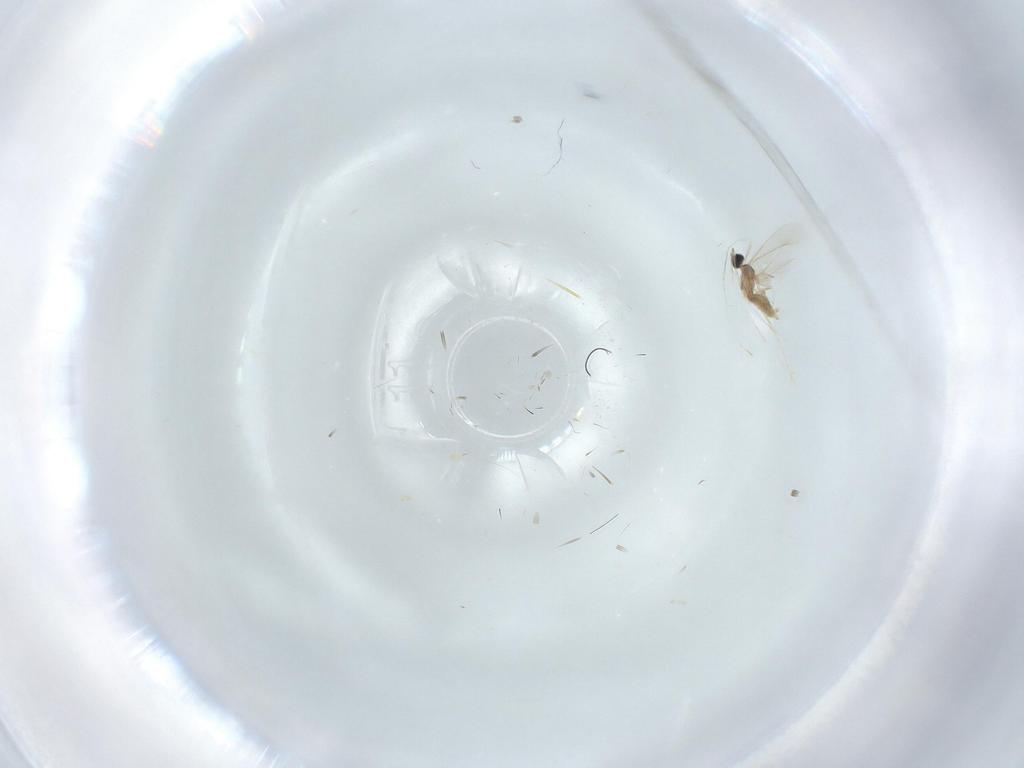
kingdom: Animalia
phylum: Arthropoda
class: Insecta
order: Diptera
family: Cecidomyiidae
